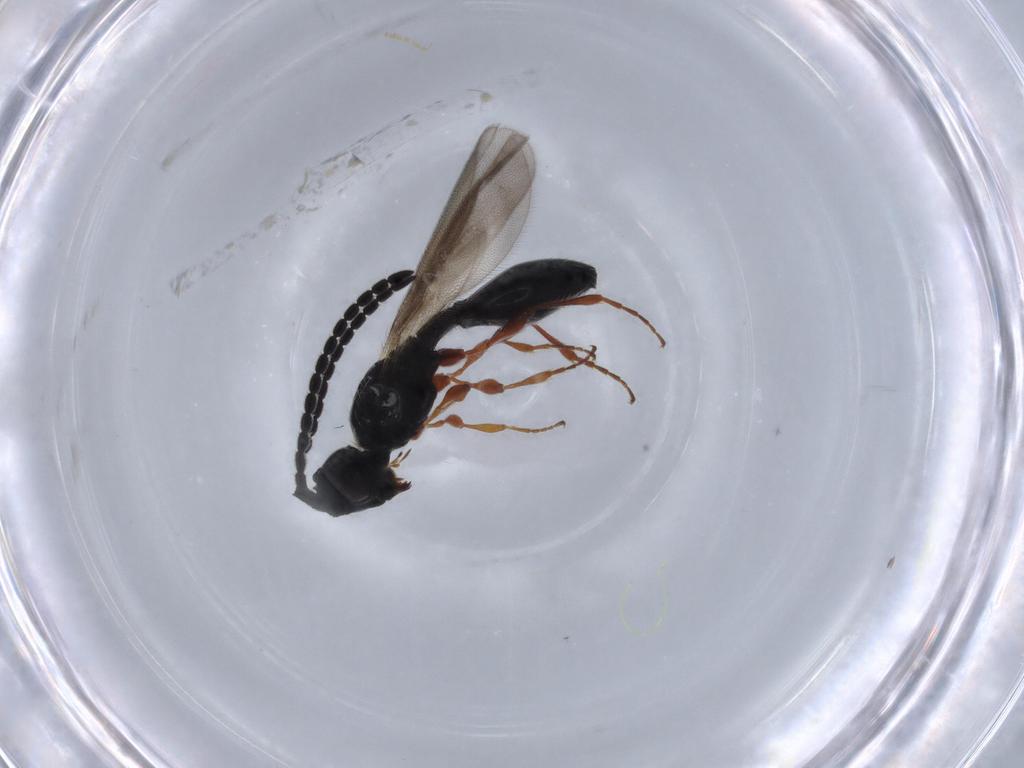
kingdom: Animalia
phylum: Arthropoda
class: Insecta
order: Hymenoptera
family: Diapriidae
